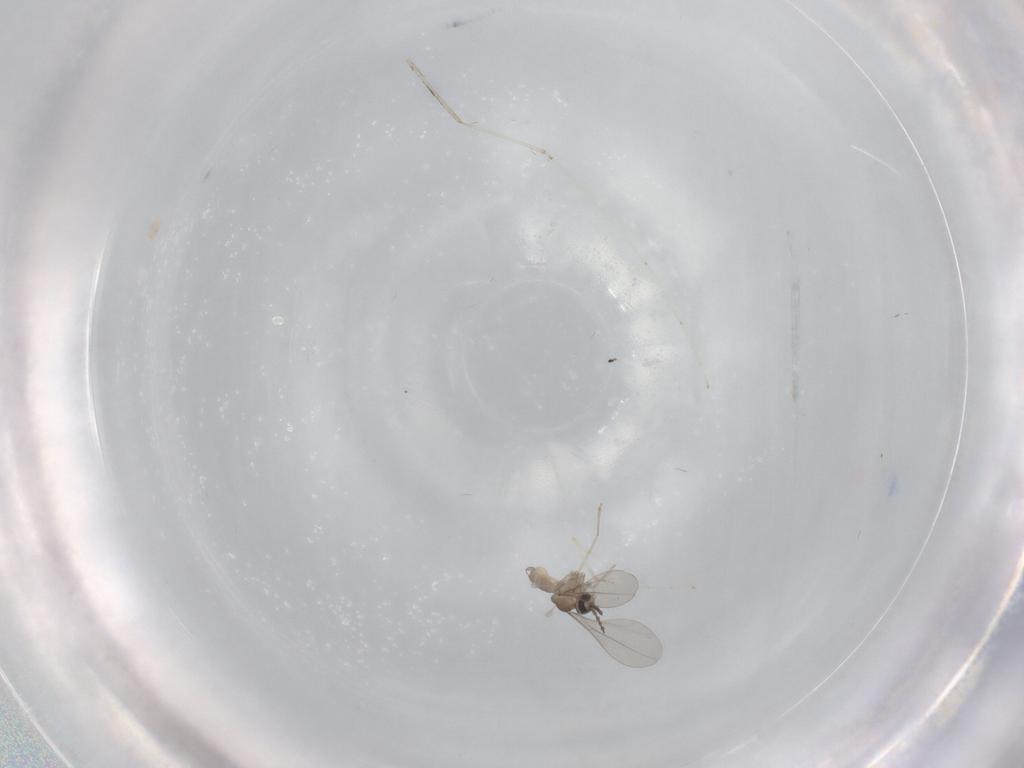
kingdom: Animalia
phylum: Arthropoda
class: Insecta
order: Diptera
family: Cecidomyiidae
